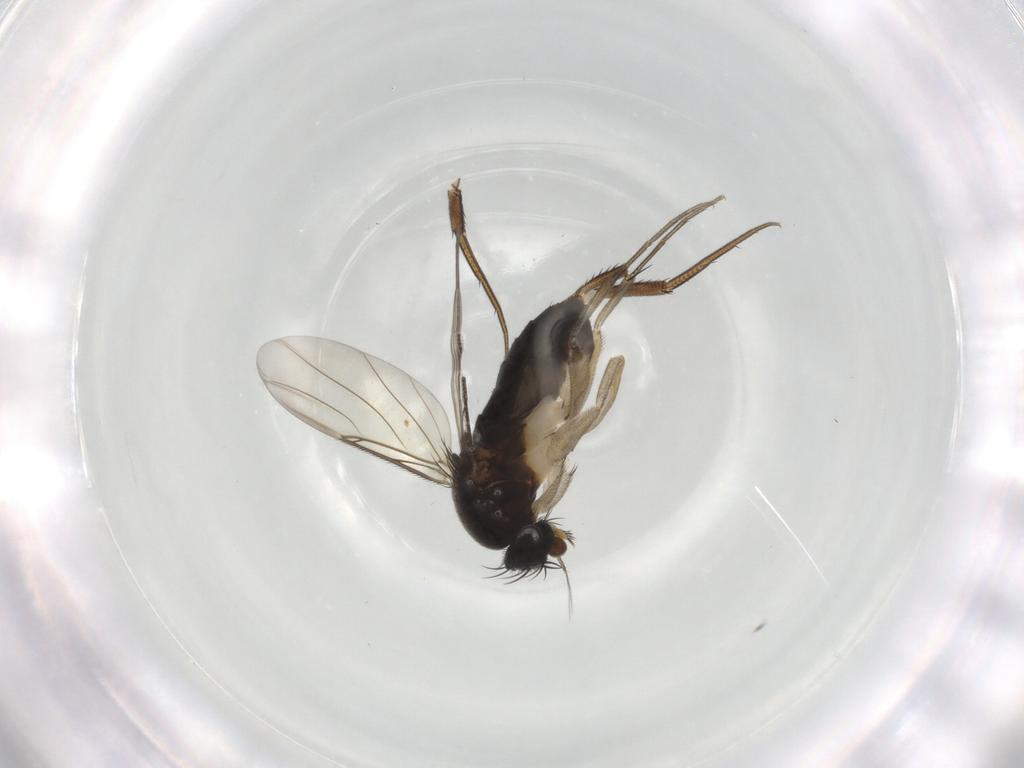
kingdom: Animalia
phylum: Arthropoda
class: Insecta
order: Diptera
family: Phoridae
